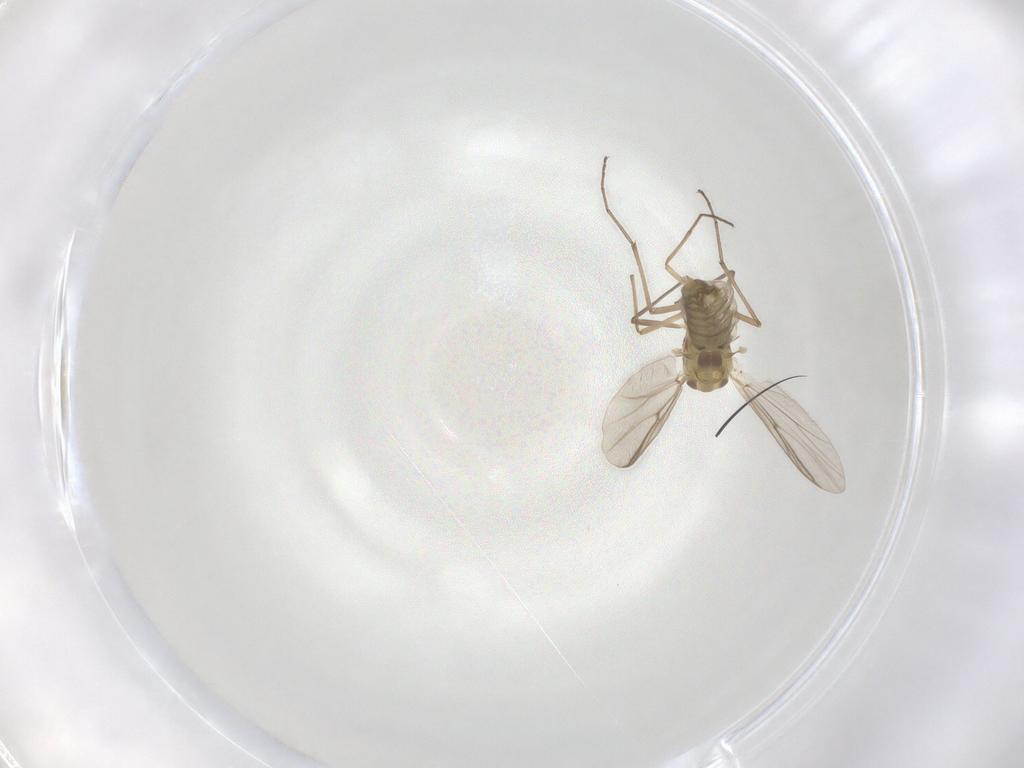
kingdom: Animalia
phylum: Arthropoda
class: Insecta
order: Diptera
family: Chironomidae
